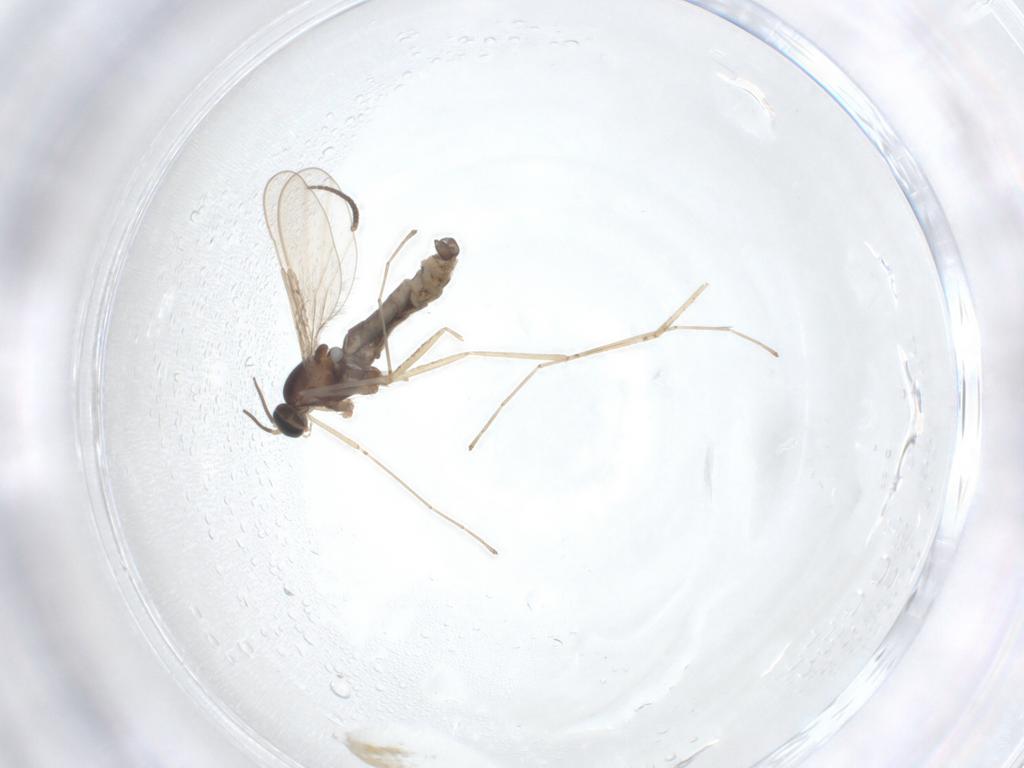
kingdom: Animalia
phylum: Arthropoda
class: Insecta
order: Diptera
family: Cecidomyiidae
